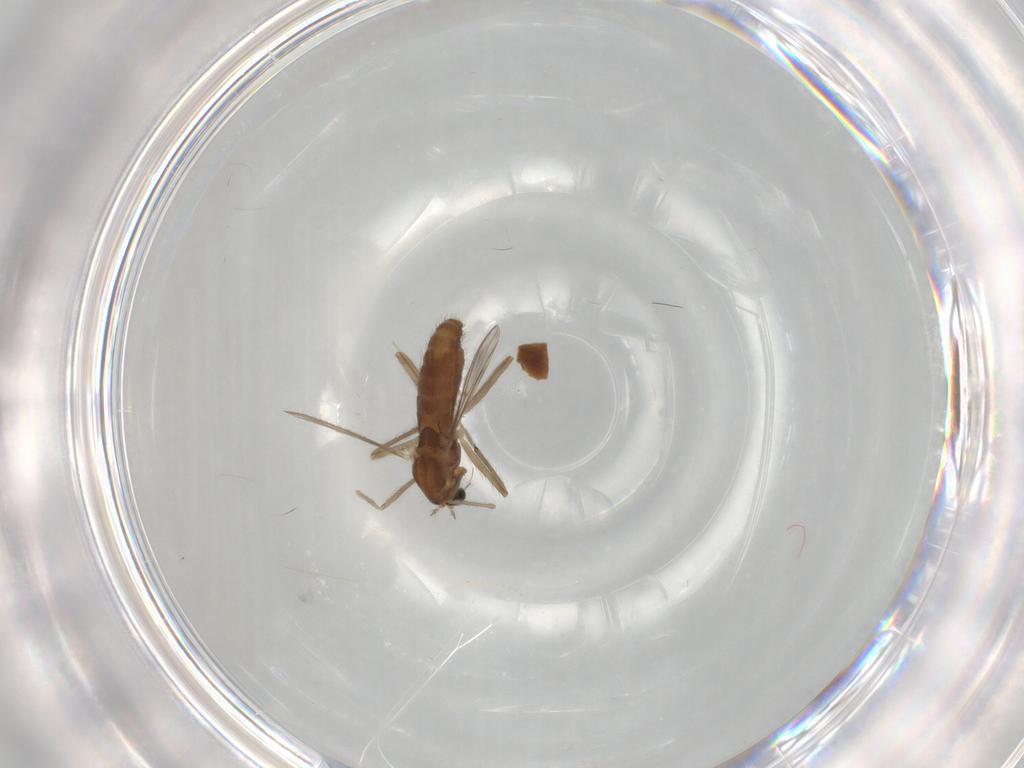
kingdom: Animalia
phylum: Arthropoda
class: Insecta
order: Diptera
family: Chironomidae
